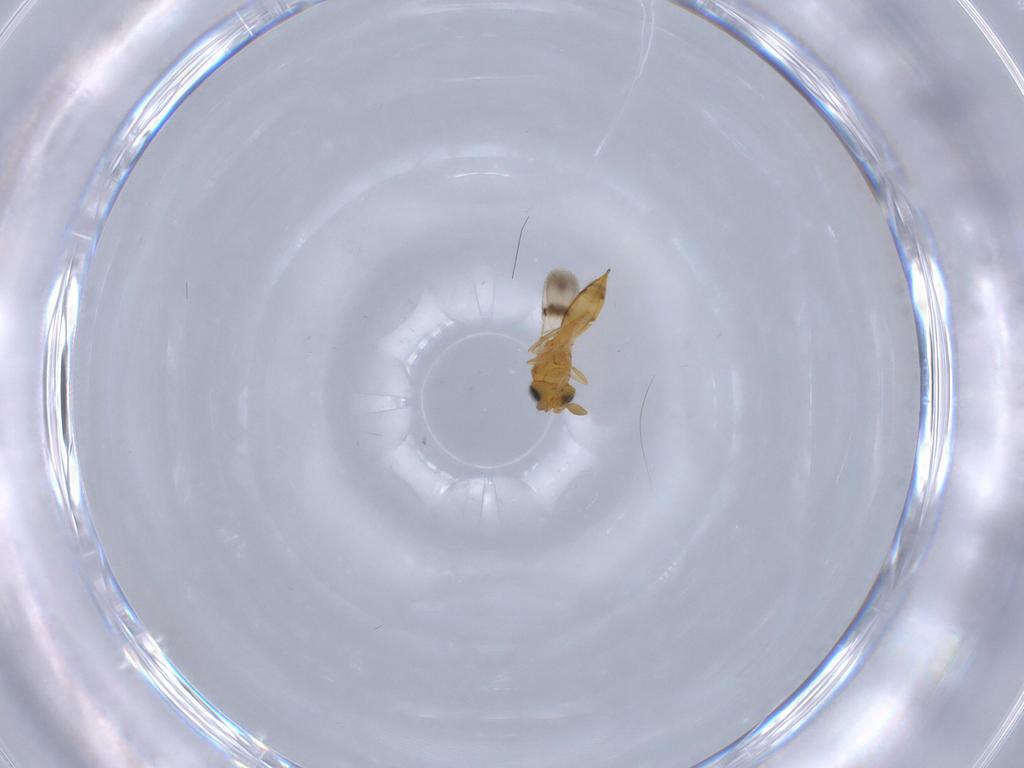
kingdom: Animalia
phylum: Arthropoda
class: Insecta
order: Hymenoptera
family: Scelionidae
